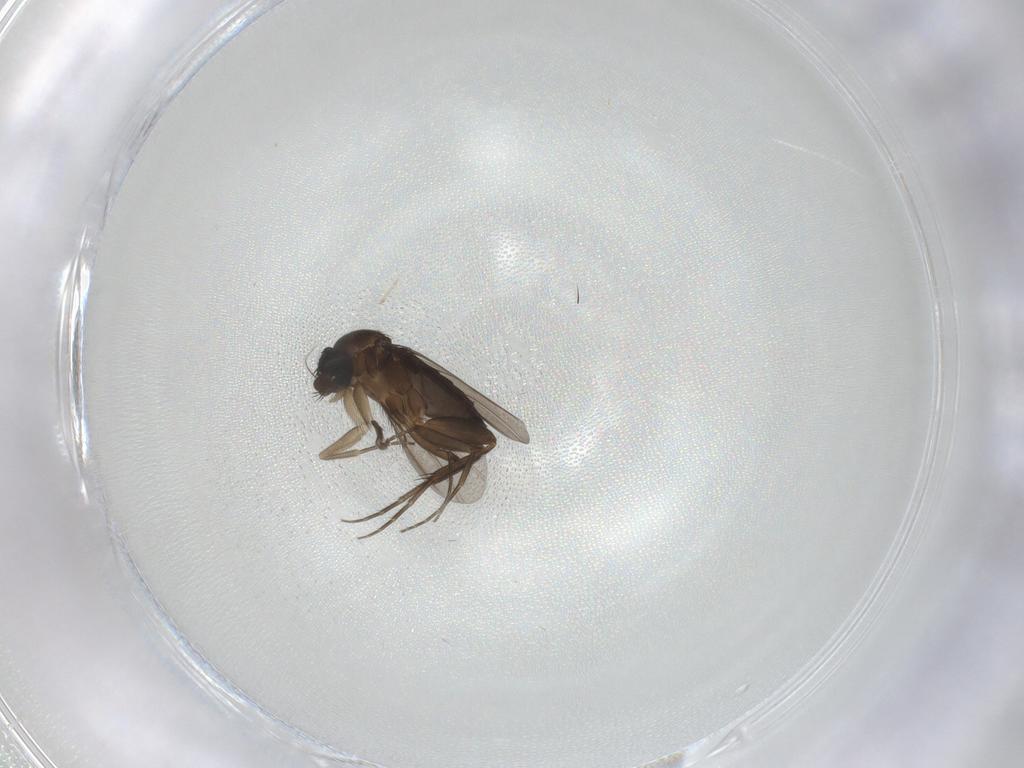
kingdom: Animalia
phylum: Arthropoda
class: Insecta
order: Diptera
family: Phoridae
